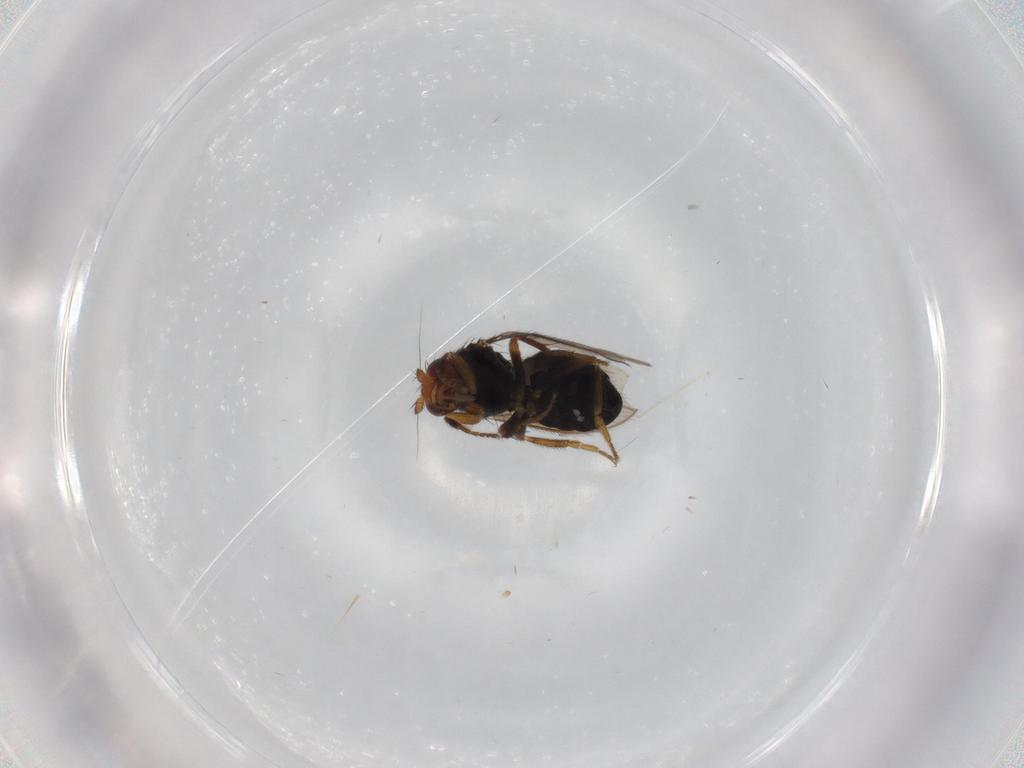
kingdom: Animalia
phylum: Arthropoda
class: Insecta
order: Diptera
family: Sphaeroceridae
